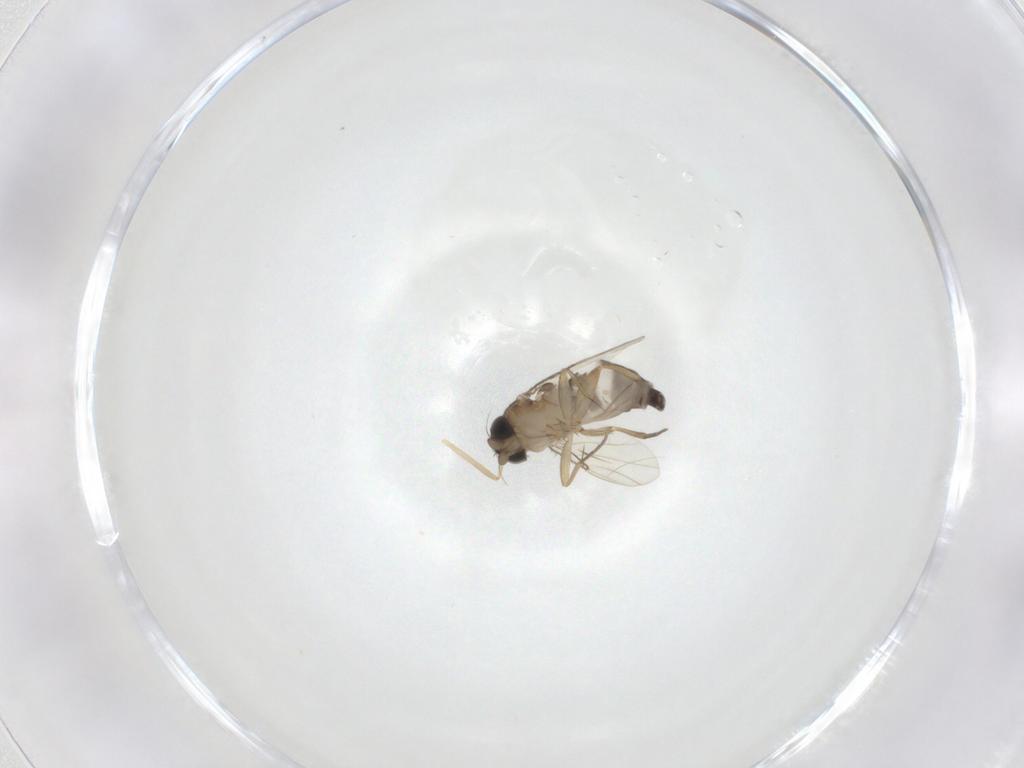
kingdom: Animalia
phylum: Arthropoda
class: Insecta
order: Diptera
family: Phoridae
